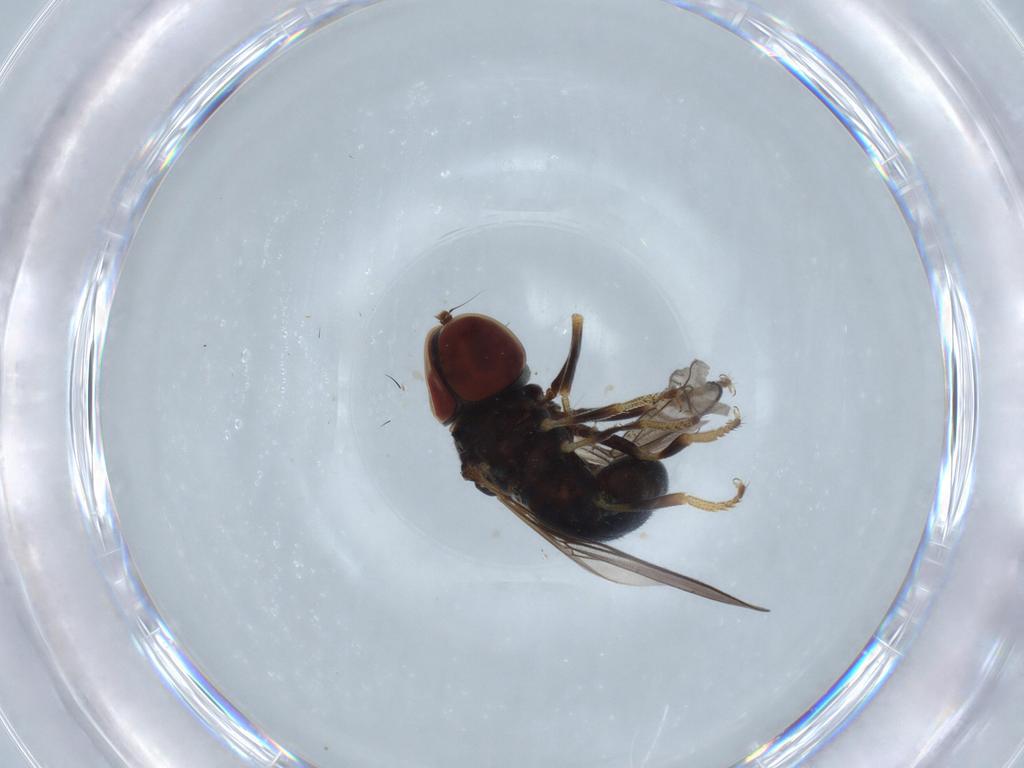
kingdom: Animalia
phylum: Arthropoda
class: Insecta
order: Diptera
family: Pipunculidae
